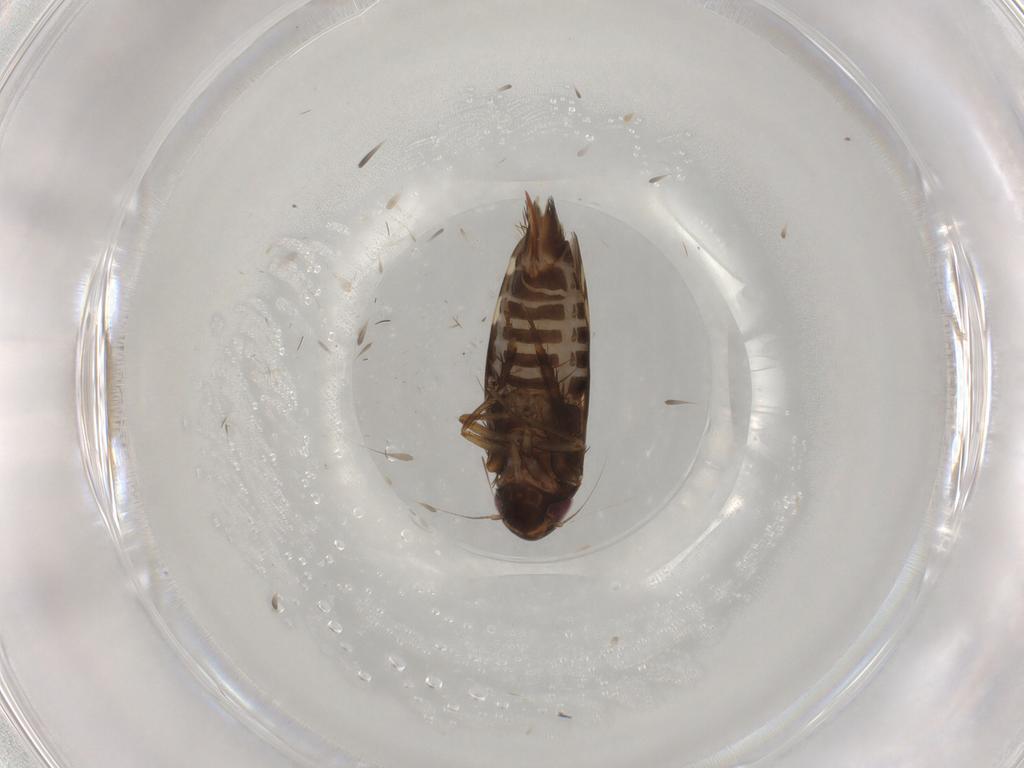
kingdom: Animalia
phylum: Arthropoda
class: Insecta
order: Hemiptera
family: Cicadellidae
